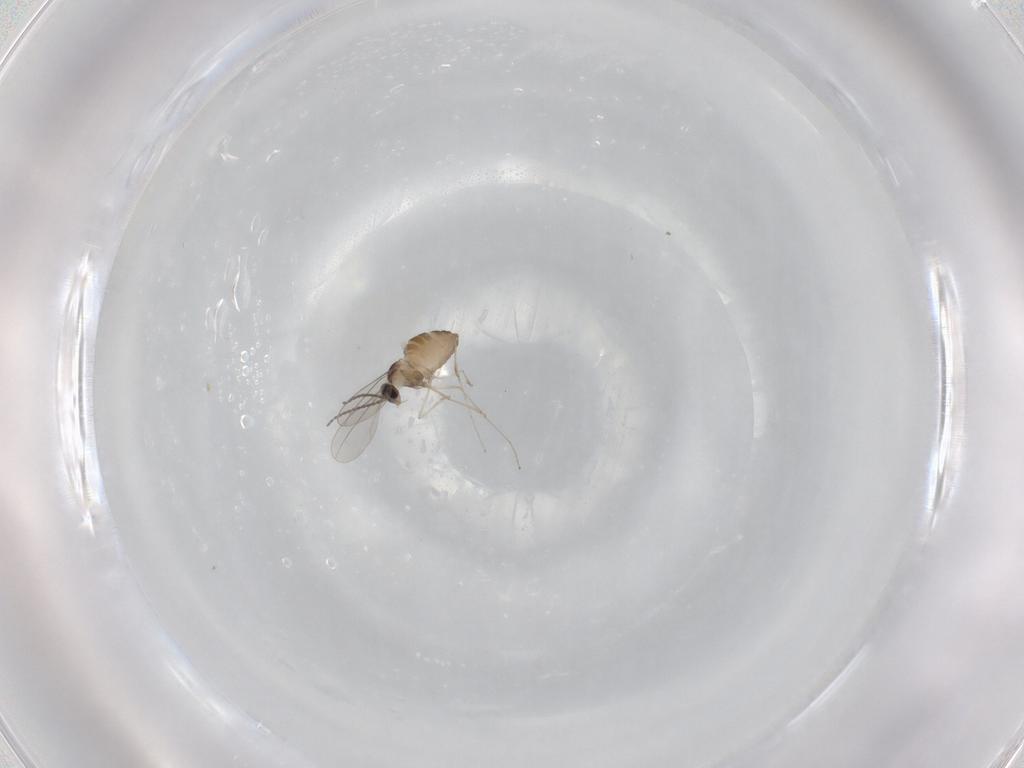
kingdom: Animalia
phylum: Arthropoda
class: Insecta
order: Diptera
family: Cecidomyiidae
